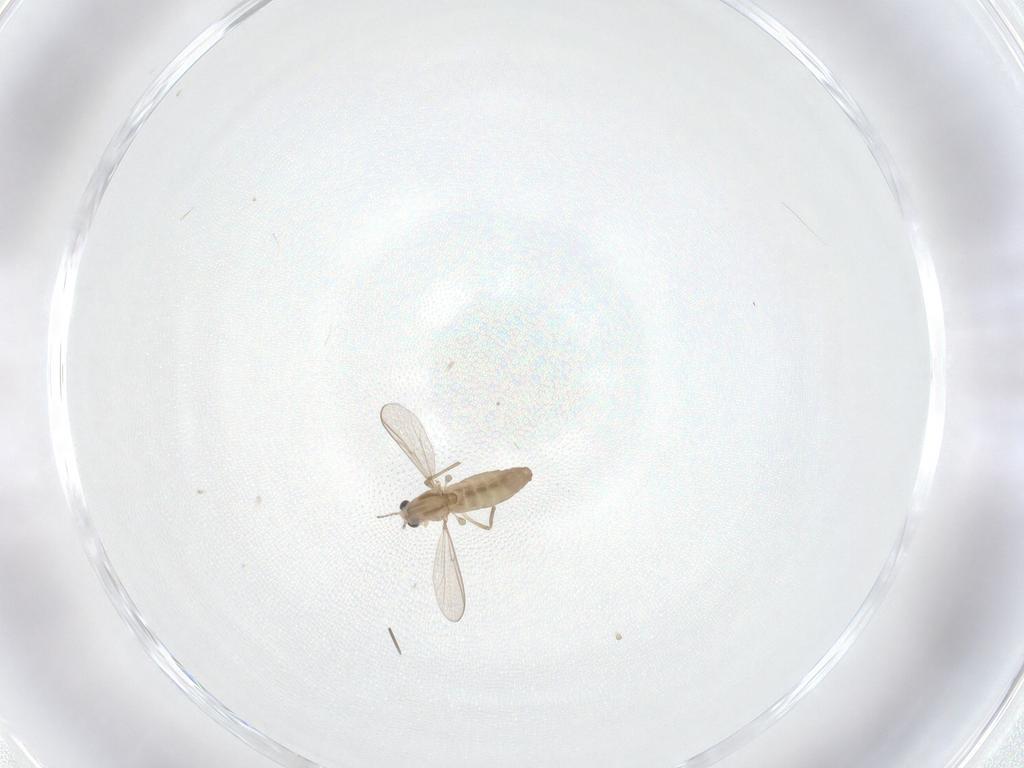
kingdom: Animalia
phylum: Arthropoda
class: Insecta
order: Diptera
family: Chironomidae
